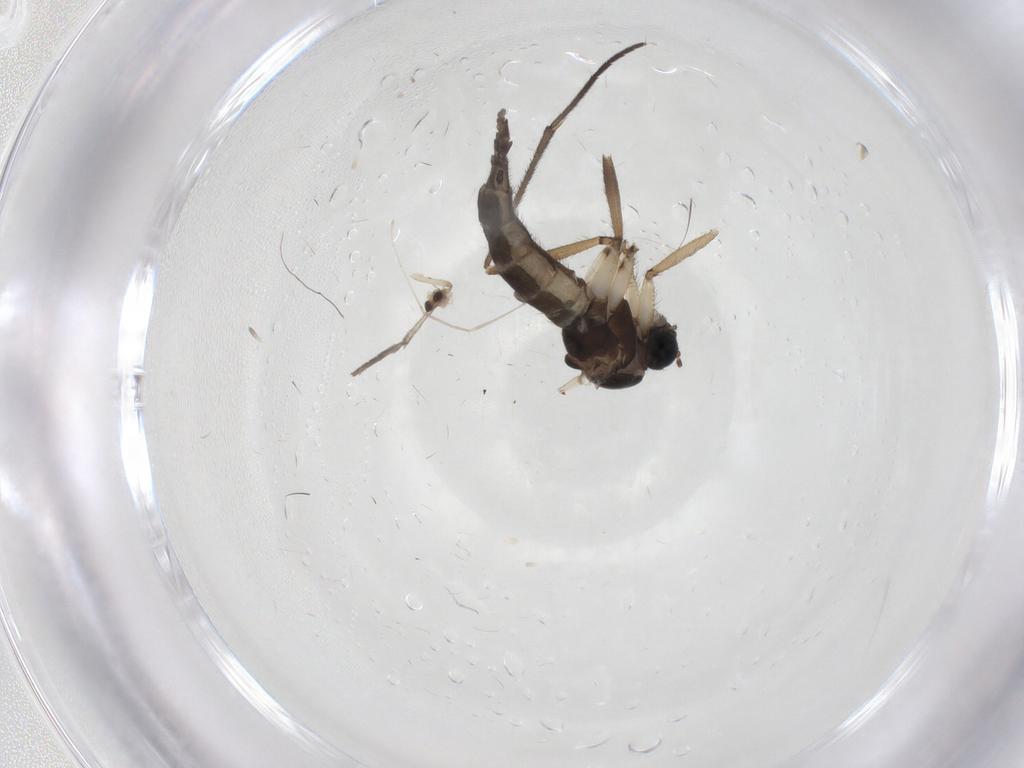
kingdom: Animalia
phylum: Arthropoda
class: Insecta
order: Diptera
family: Sciaridae
